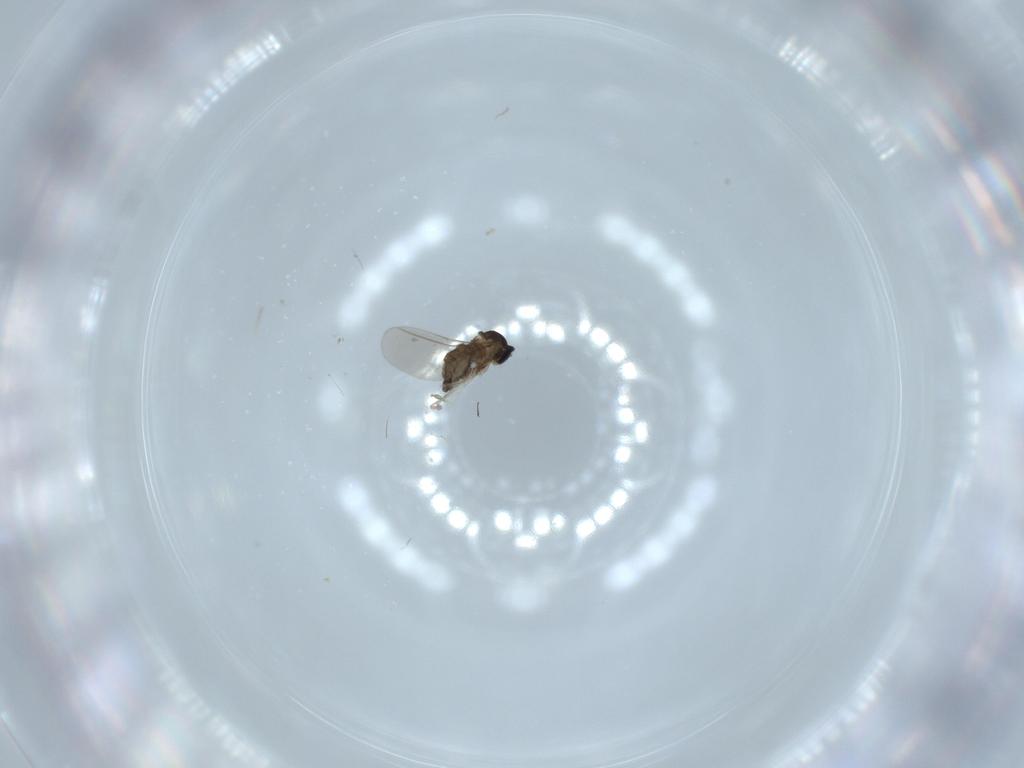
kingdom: Animalia
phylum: Arthropoda
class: Insecta
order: Diptera
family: Cecidomyiidae
